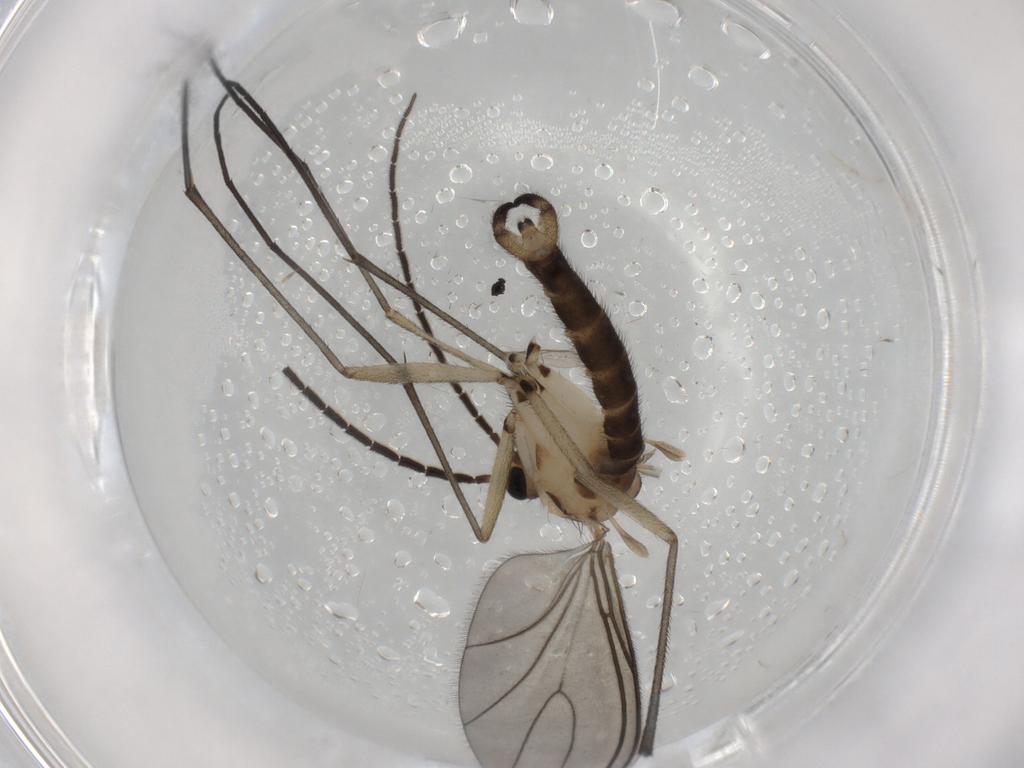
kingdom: Animalia
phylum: Arthropoda
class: Insecta
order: Diptera
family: Sciaridae
